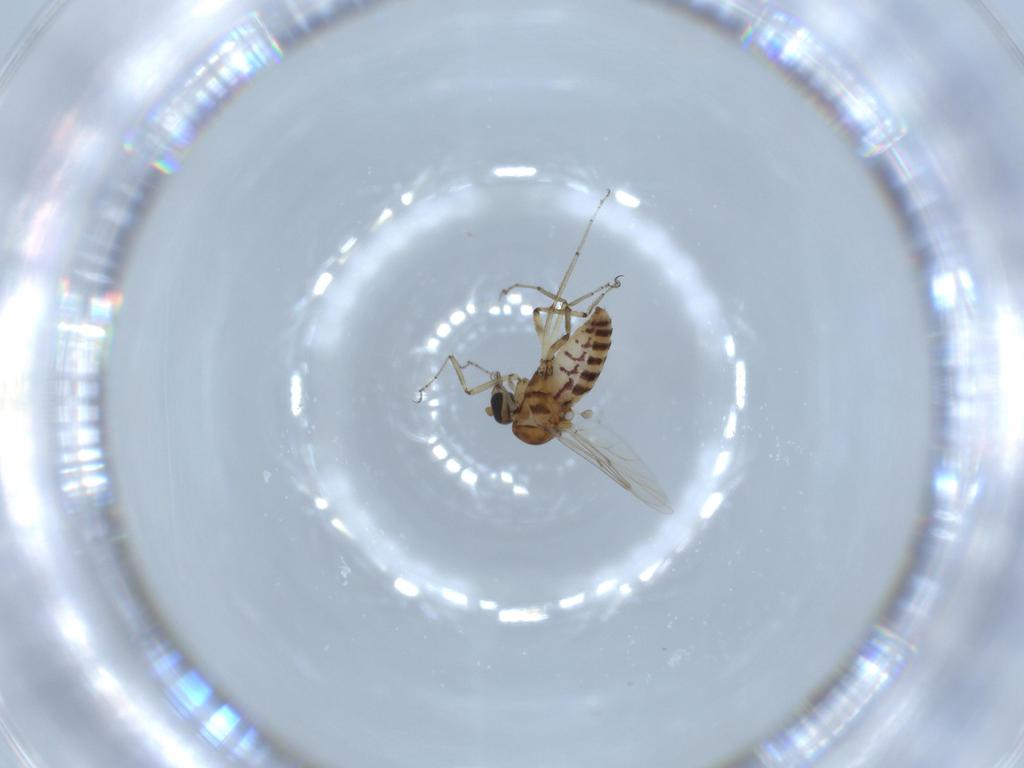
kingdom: Animalia
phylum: Arthropoda
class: Insecta
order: Diptera
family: Ceratopogonidae
